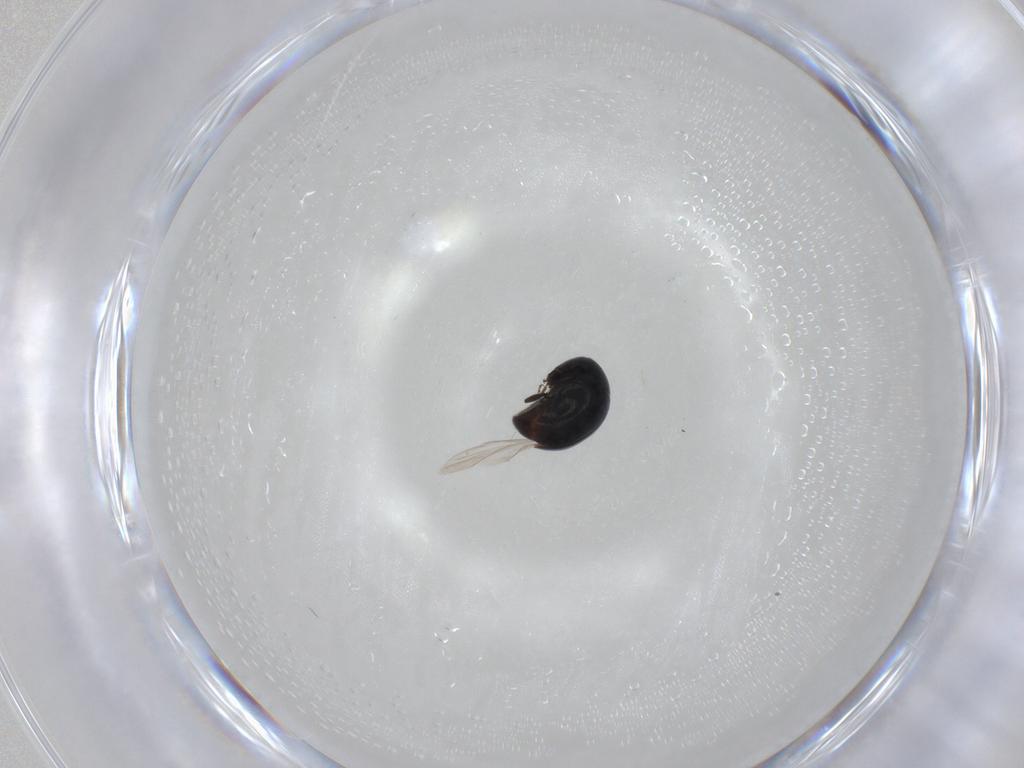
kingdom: Animalia
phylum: Arthropoda
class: Insecta
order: Coleoptera
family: Cybocephalidae
